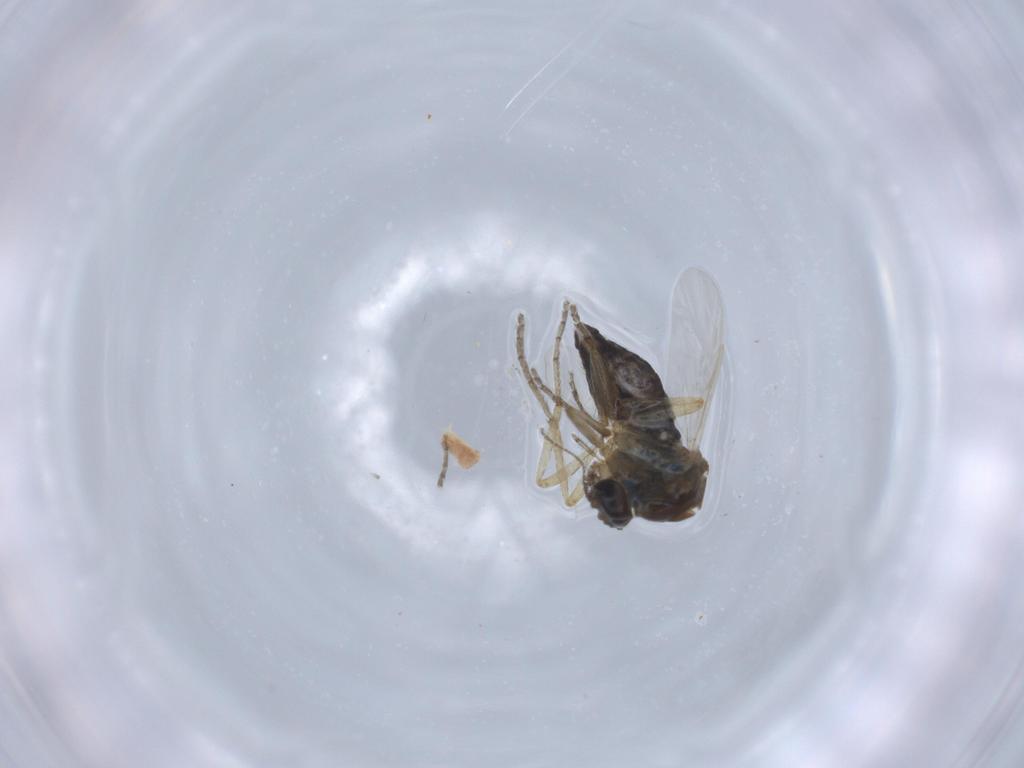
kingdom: Animalia
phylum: Arthropoda
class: Insecta
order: Diptera
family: Ceratopogonidae
